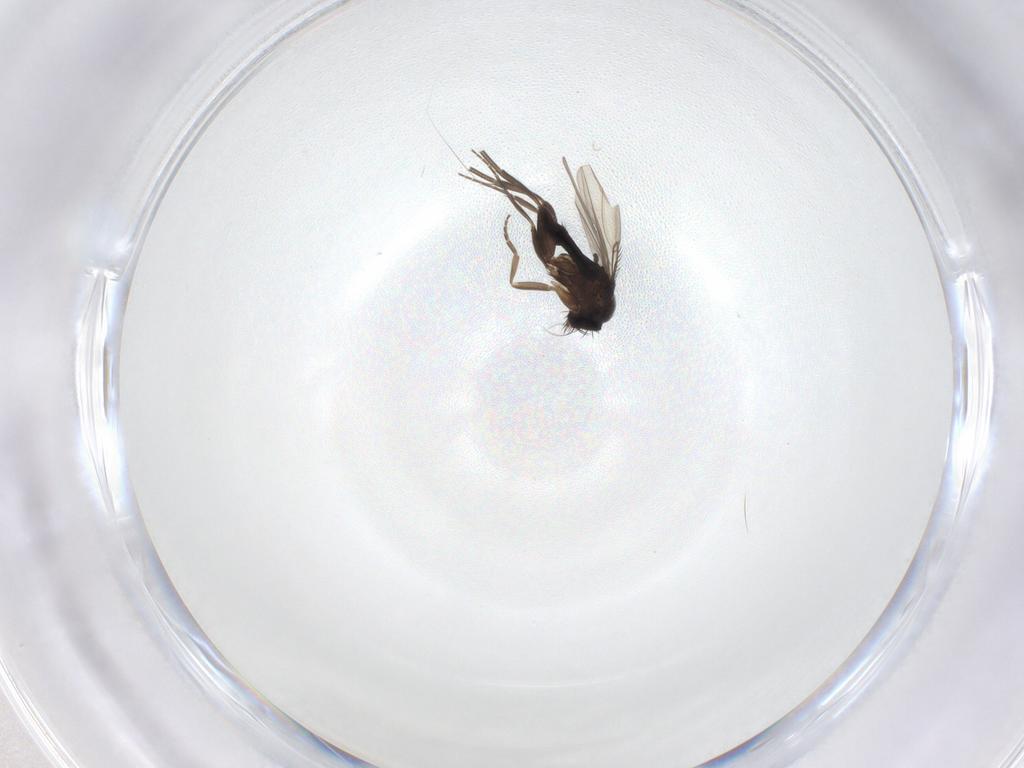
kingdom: Animalia
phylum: Arthropoda
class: Insecta
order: Diptera
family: Phoridae
